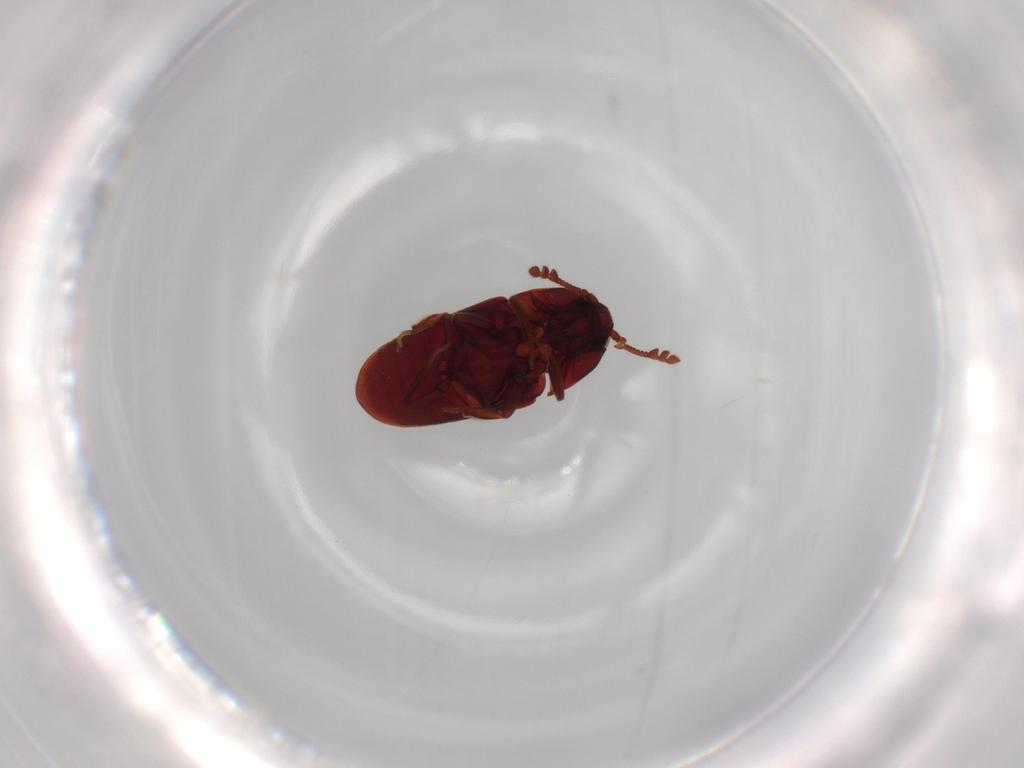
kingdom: Animalia
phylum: Arthropoda
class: Insecta
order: Coleoptera
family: Throscidae
